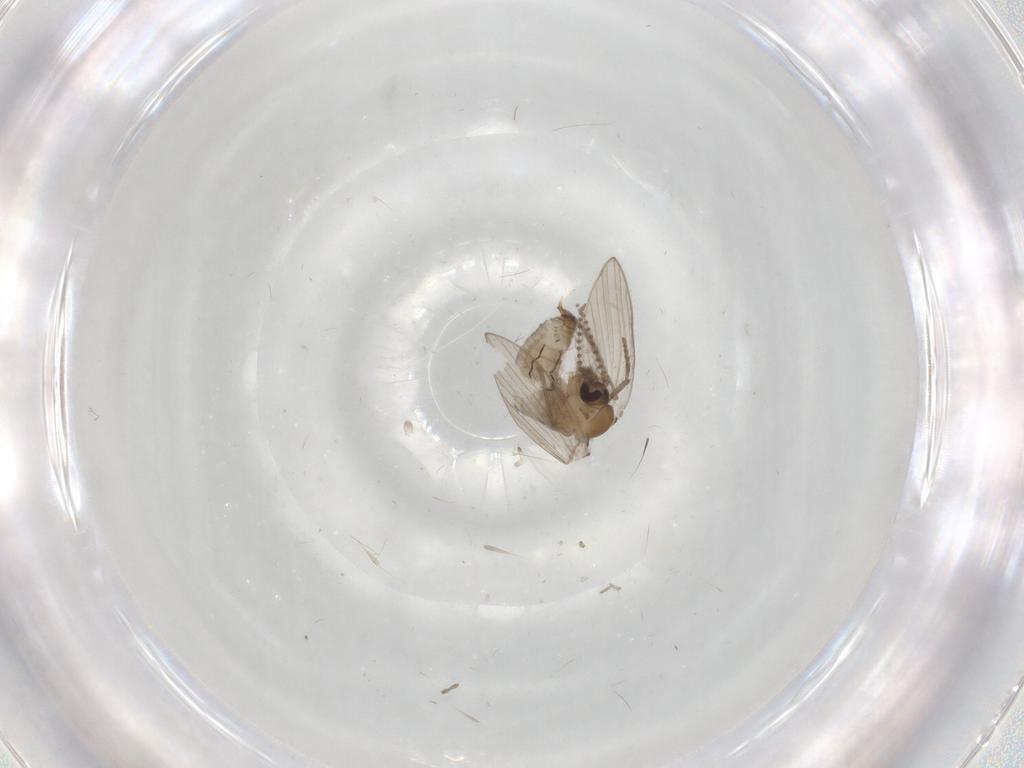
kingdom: Animalia
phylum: Arthropoda
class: Insecta
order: Diptera
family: Psychodidae
